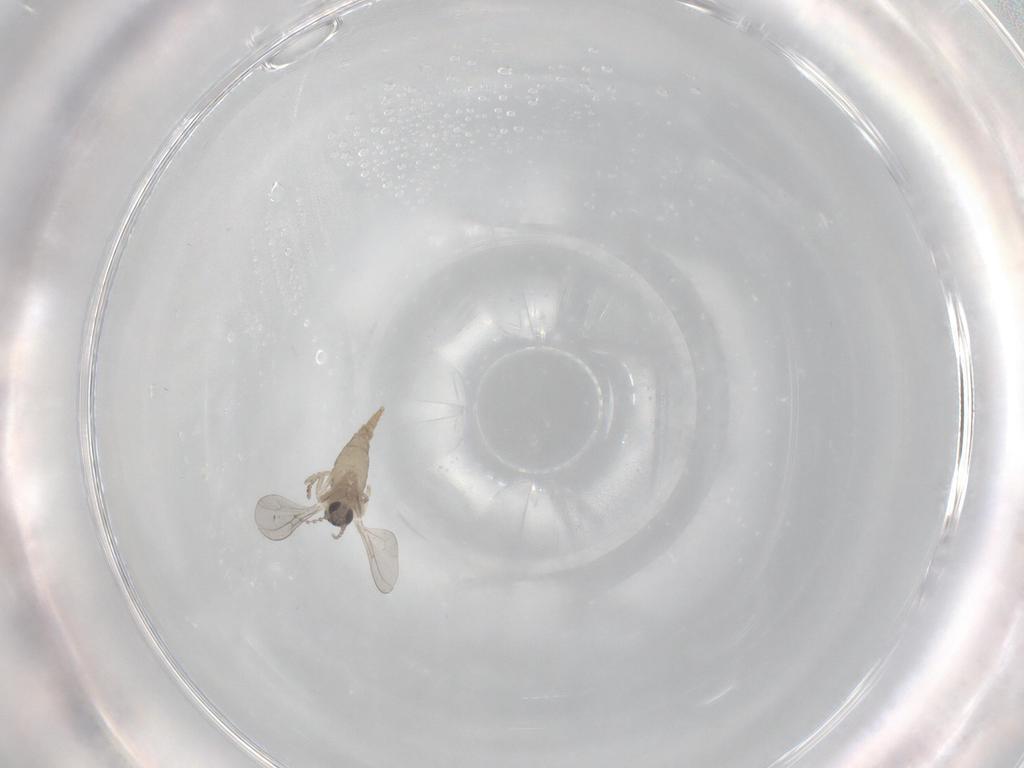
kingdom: Animalia
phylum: Arthropoda
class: Insecta
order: Diptera
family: Cecidomyiidae
